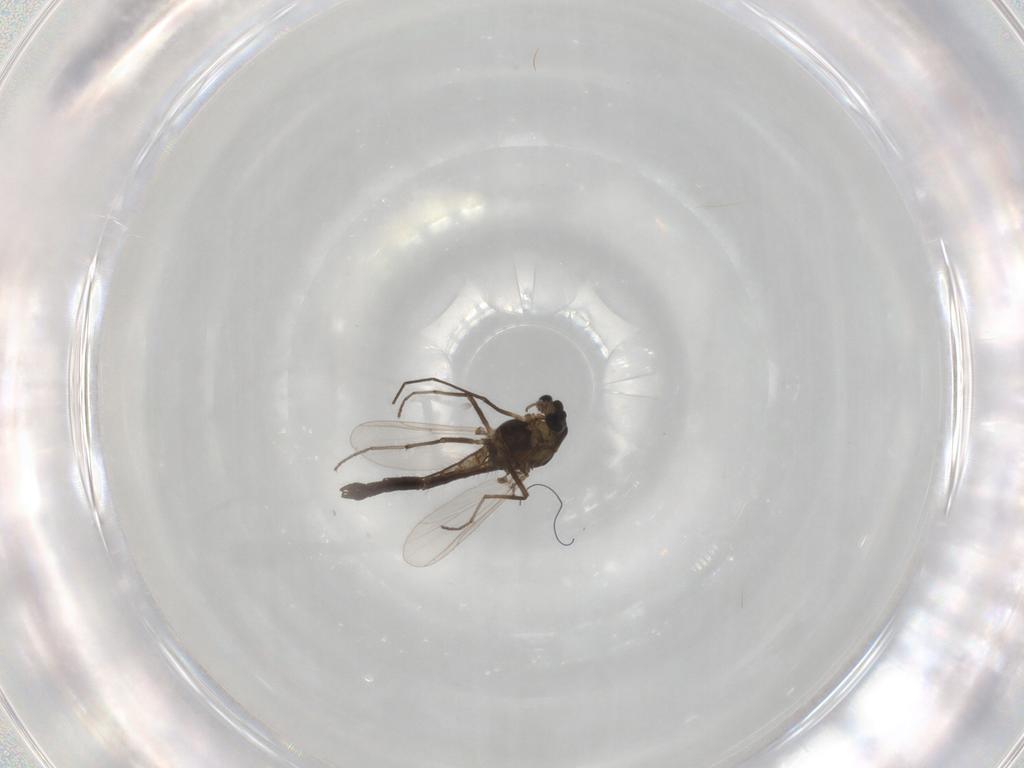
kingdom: Animalia
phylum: Arthropoda
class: Insecta
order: Diptera
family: Chironomidae
